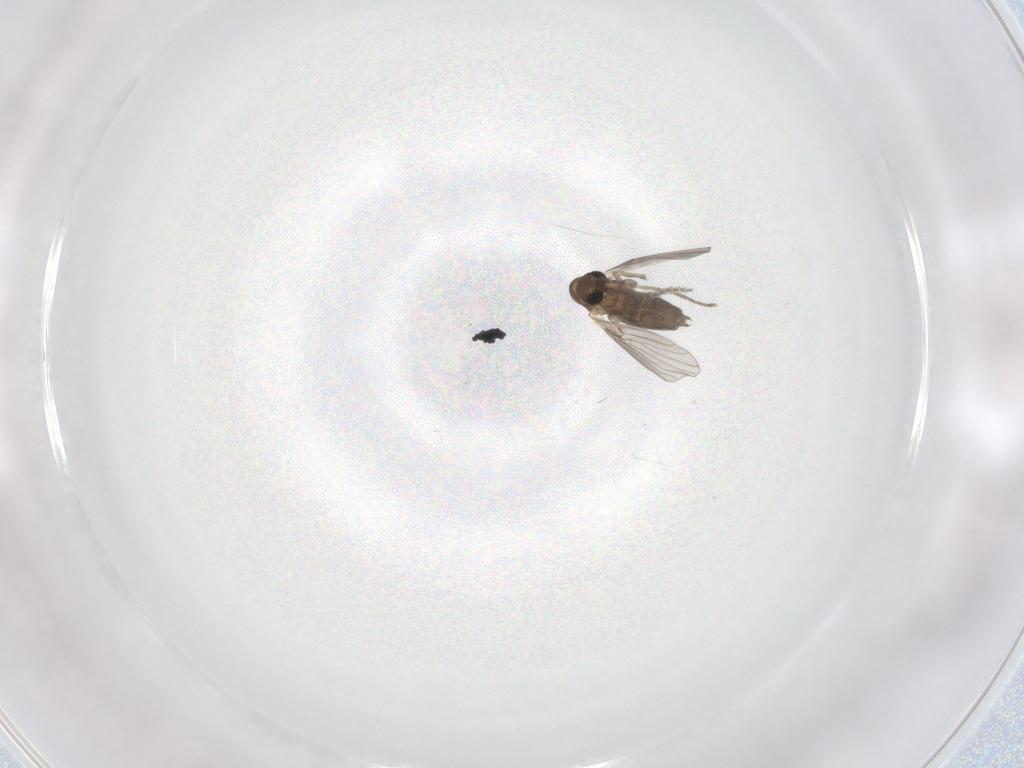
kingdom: Animalia
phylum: Arthropoda
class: Insecta
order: Diptera
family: Psychodidae
